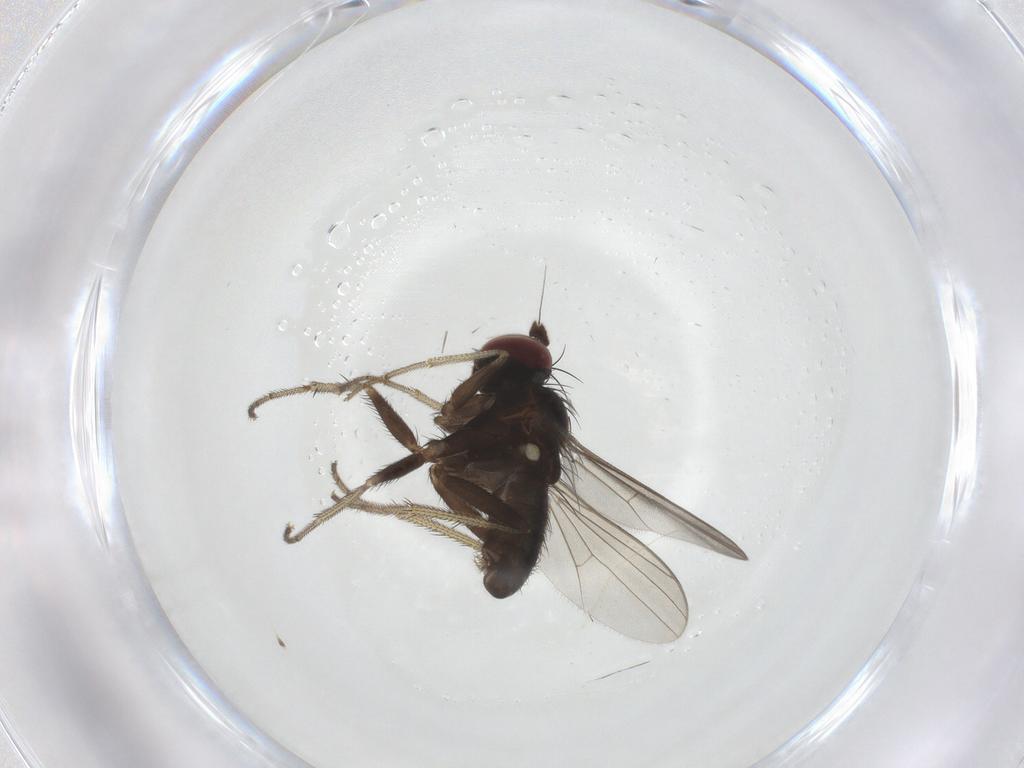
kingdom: Animalia
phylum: Arthropoda
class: Insecta
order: Diptera
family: Dolichopodidae
